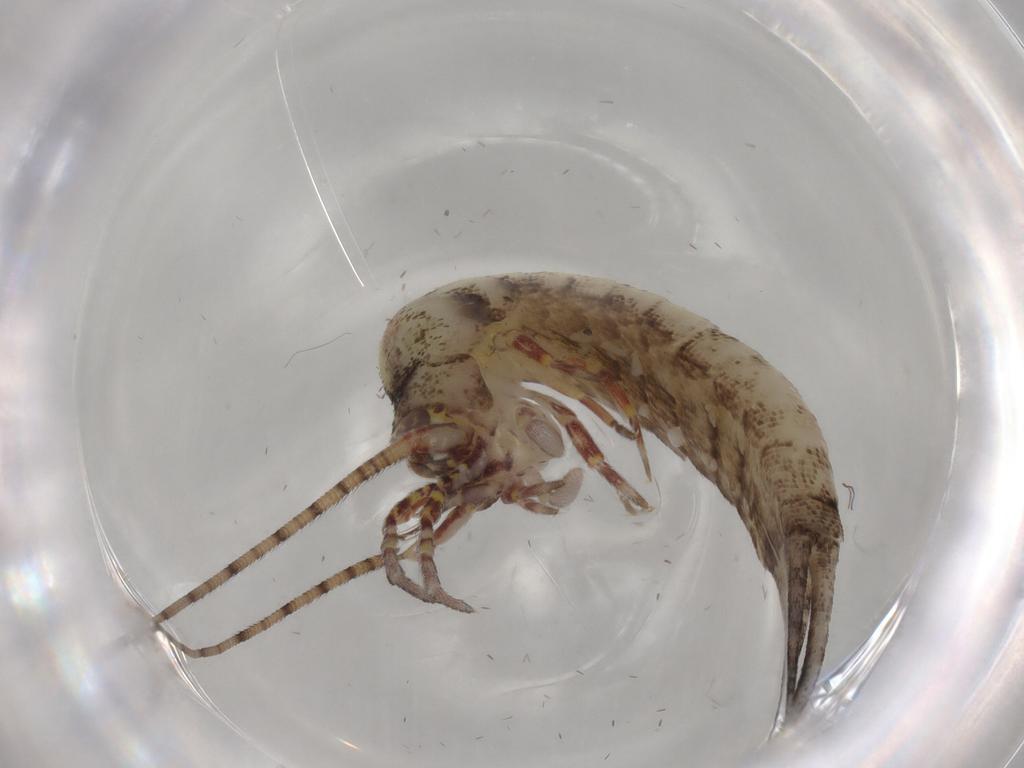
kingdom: Animalia
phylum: Arthropoda
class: Insecta
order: Archaeognatha
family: Machilidae
